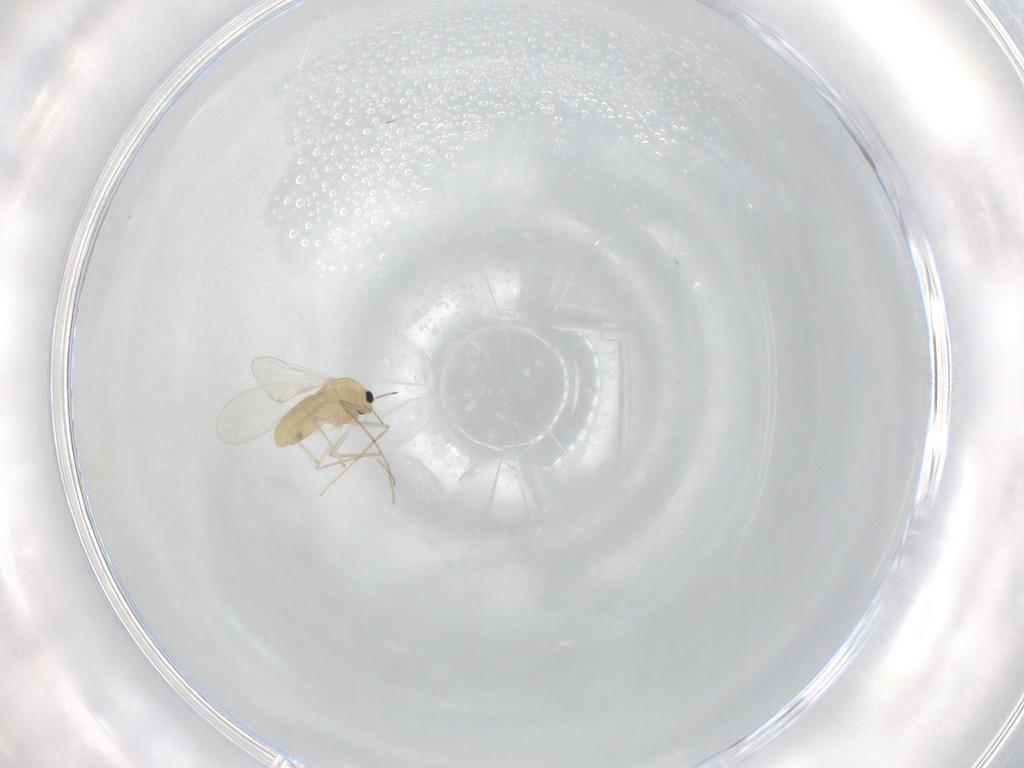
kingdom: Animalia
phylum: Arthropoda
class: Insecta
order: Diptera
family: Chironomidae
